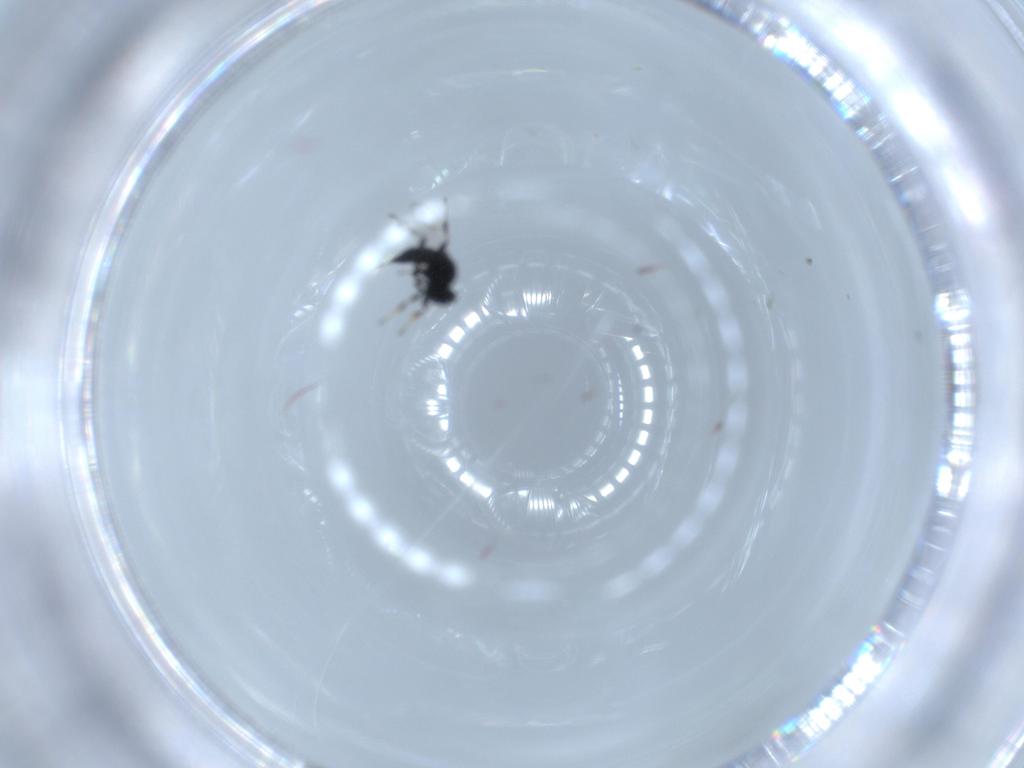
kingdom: Animalia
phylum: Arthropoda
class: Insecta
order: Hymenoptera
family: Platygastridae
